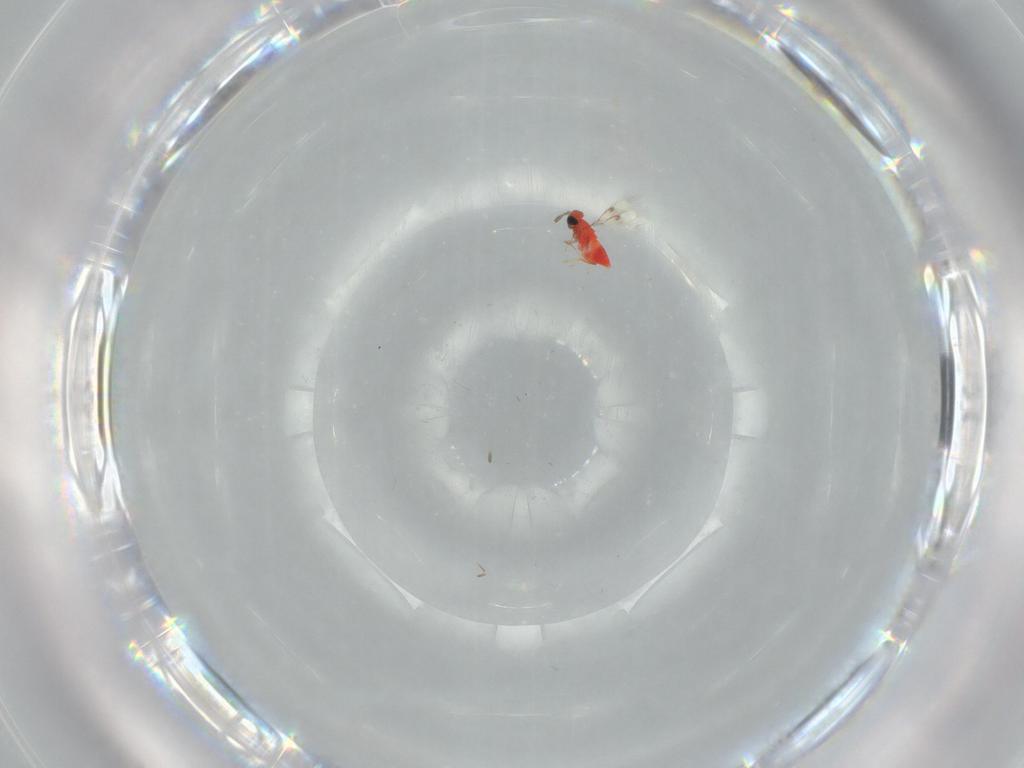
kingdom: Animalia
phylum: Arthropoda
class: Insecta
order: Hymenoptera
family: Trichogrammatidae
